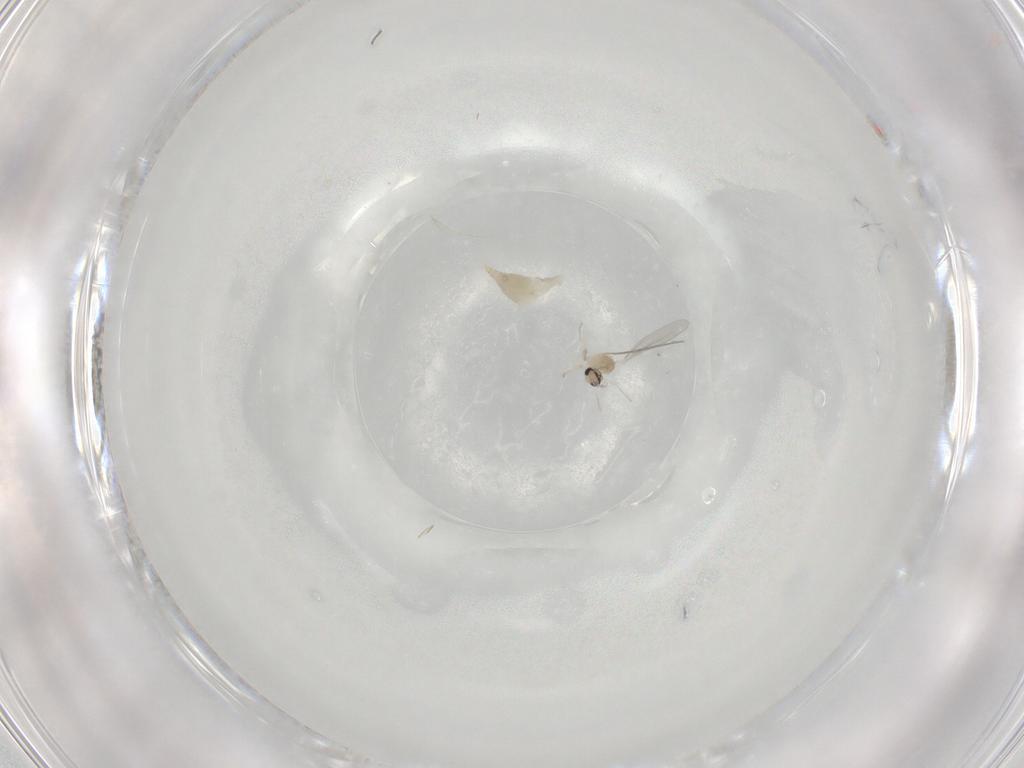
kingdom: Animalia
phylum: Arthropoda
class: Insecta
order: Diptera
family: Cecidomyiidae
